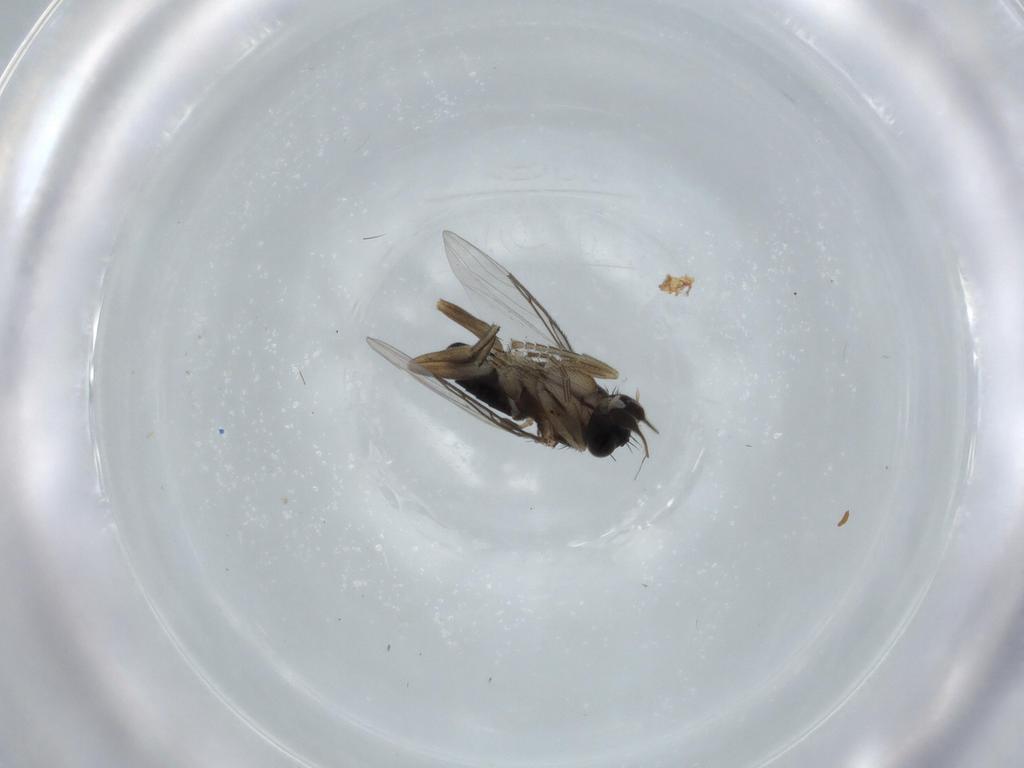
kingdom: Animalia
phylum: Arthropoda
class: Insecta
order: Diptera
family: Phoridae
